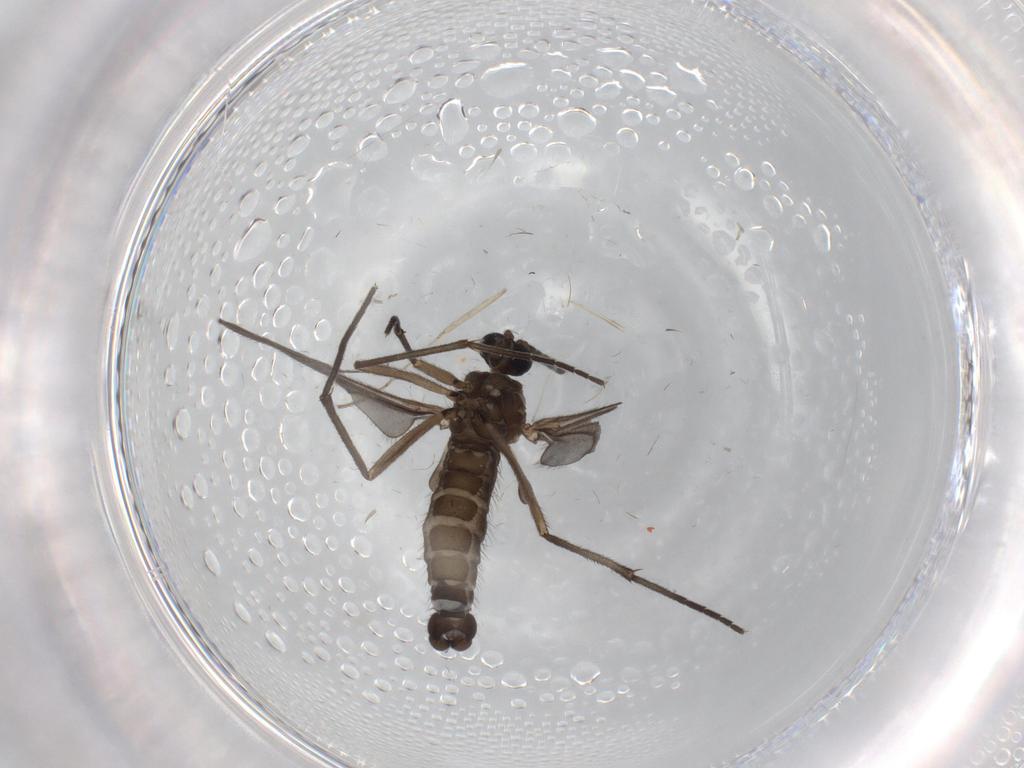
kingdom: Animalia
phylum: Arthropoda
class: Insecta
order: Diptera
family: Sciaridae
